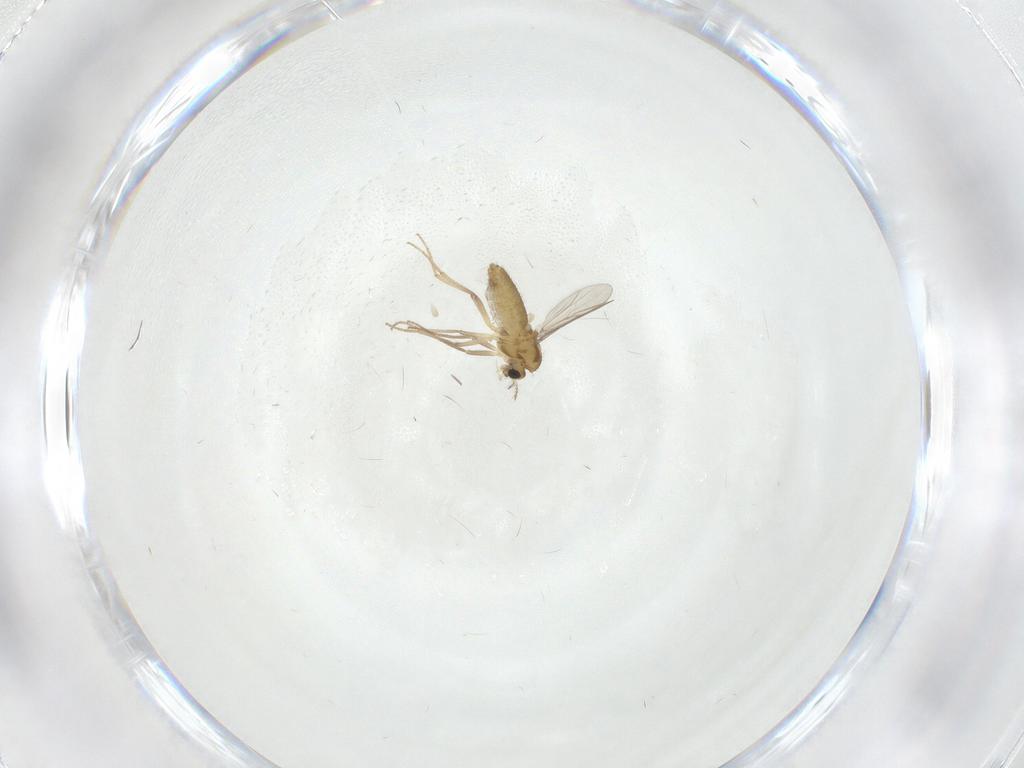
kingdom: Animalia
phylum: Arthropoda
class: Insecta
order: Diptera
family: Chironomidae
